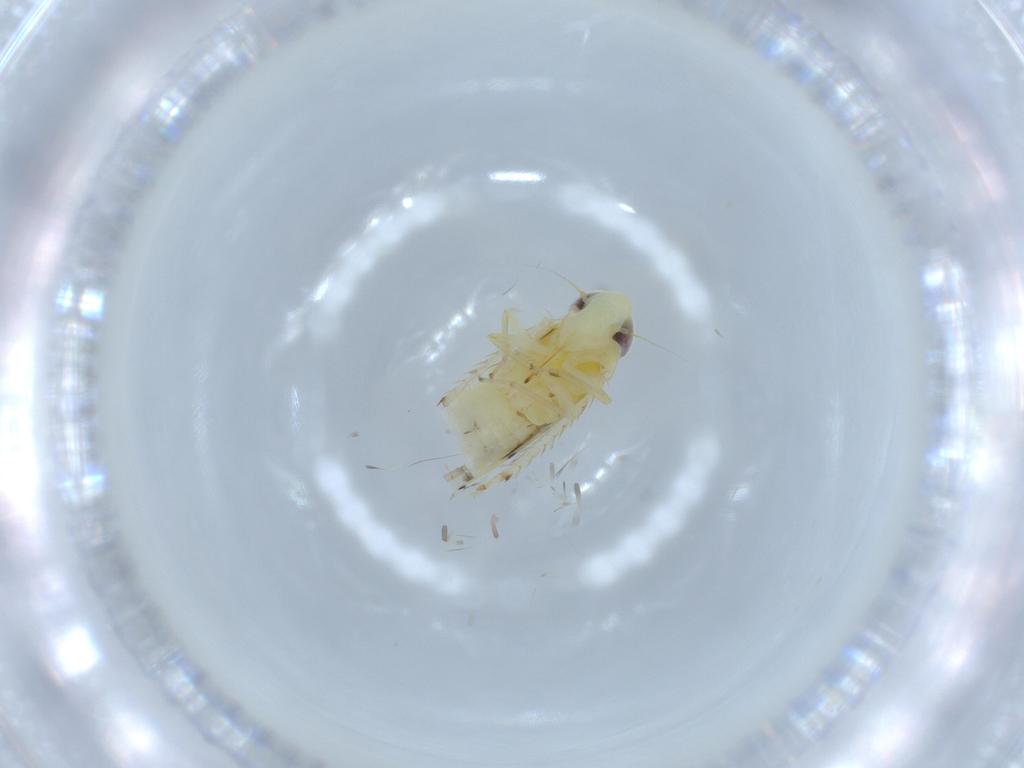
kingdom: Animalia
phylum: Arthropoda
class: Insecta
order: Hemiptera
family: Cicadellidae
